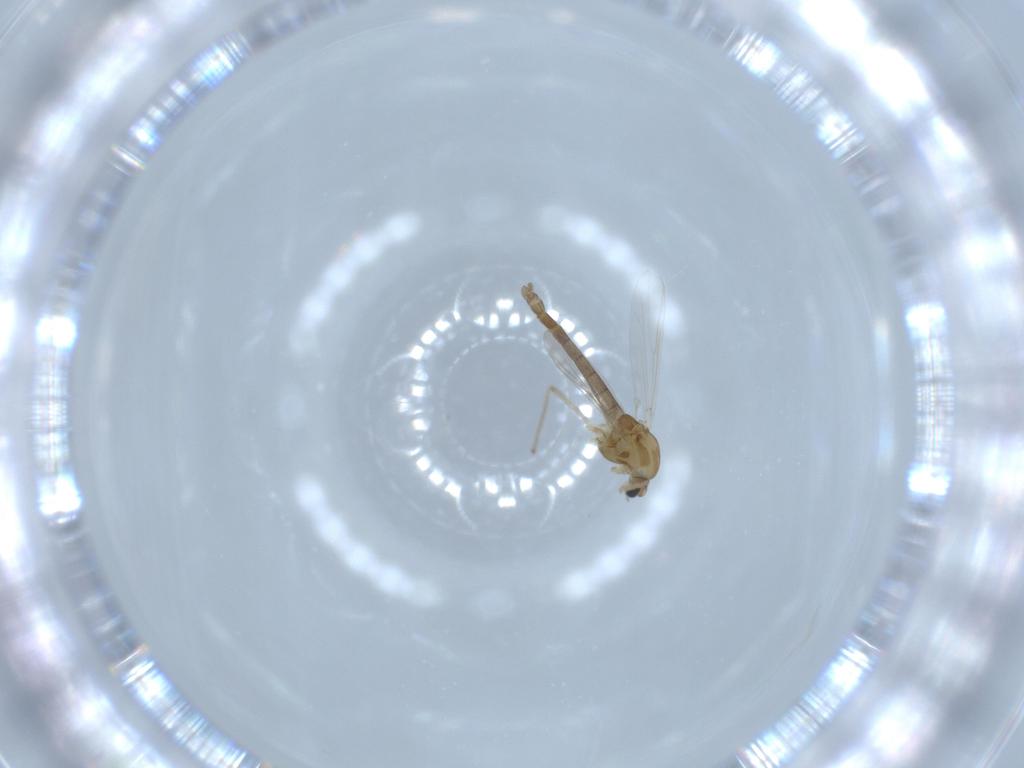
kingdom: Animalia
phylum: Arthropoda
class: Insecta
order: Diptera
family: Chironomidae
